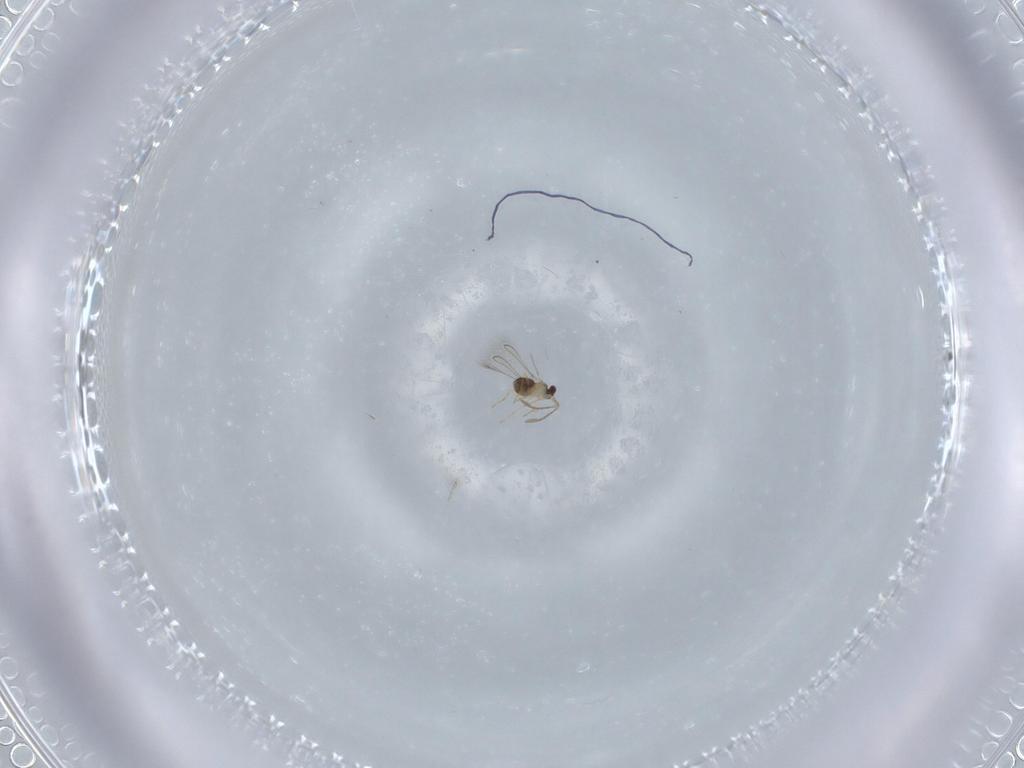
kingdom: Animalia
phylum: Arthropoda
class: Insecta
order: Hymenoptera
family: Mymaridae
